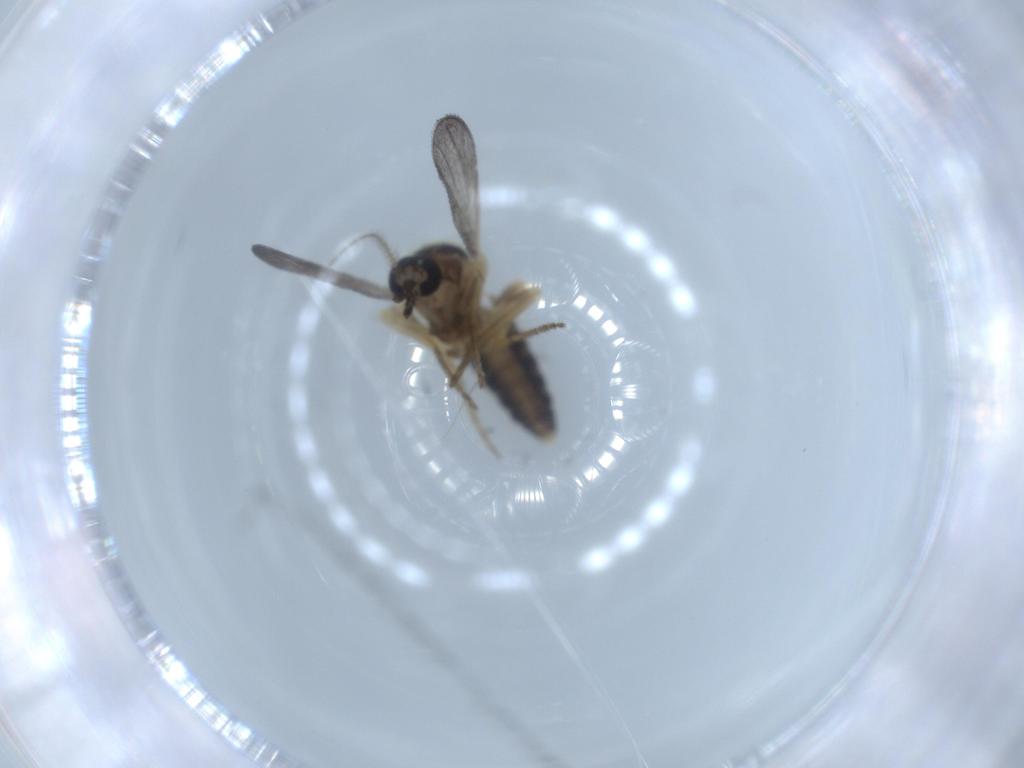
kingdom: Animalia
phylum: Arthropoda
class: Insecta
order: Diptera
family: Ceratopogonidae
